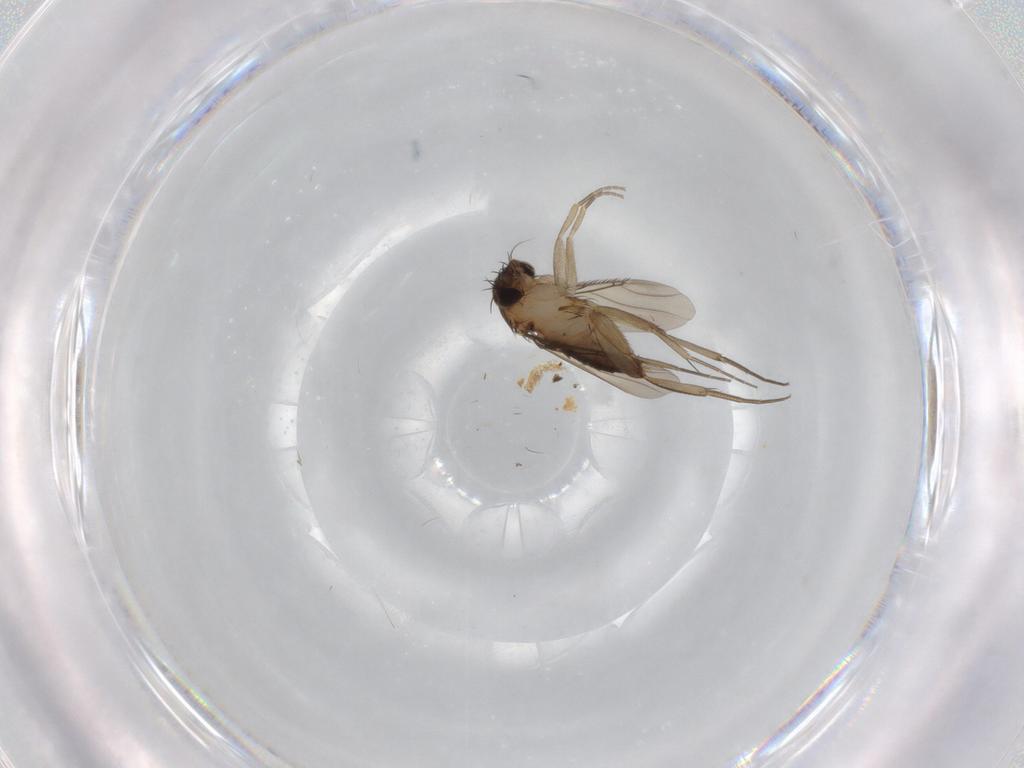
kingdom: Animalia
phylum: Arthropoda
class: Insecta
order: Diptera
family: Phoridae
